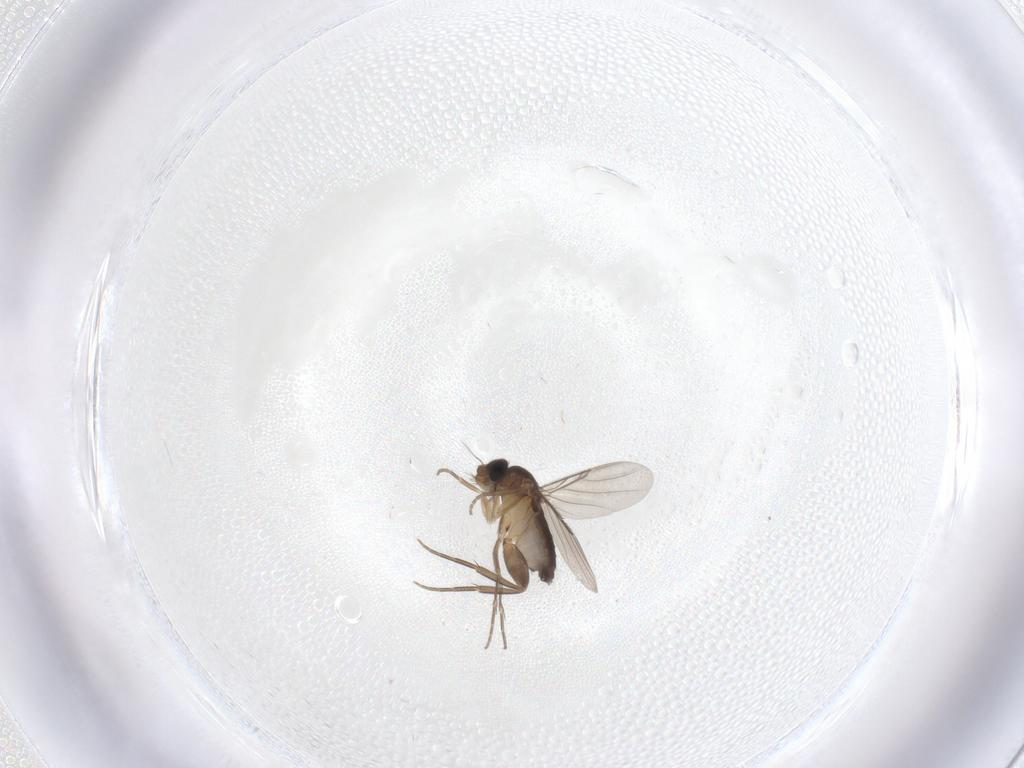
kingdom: Animalia
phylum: Arthropoda
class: Insecta
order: Diptera
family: Phoridae
